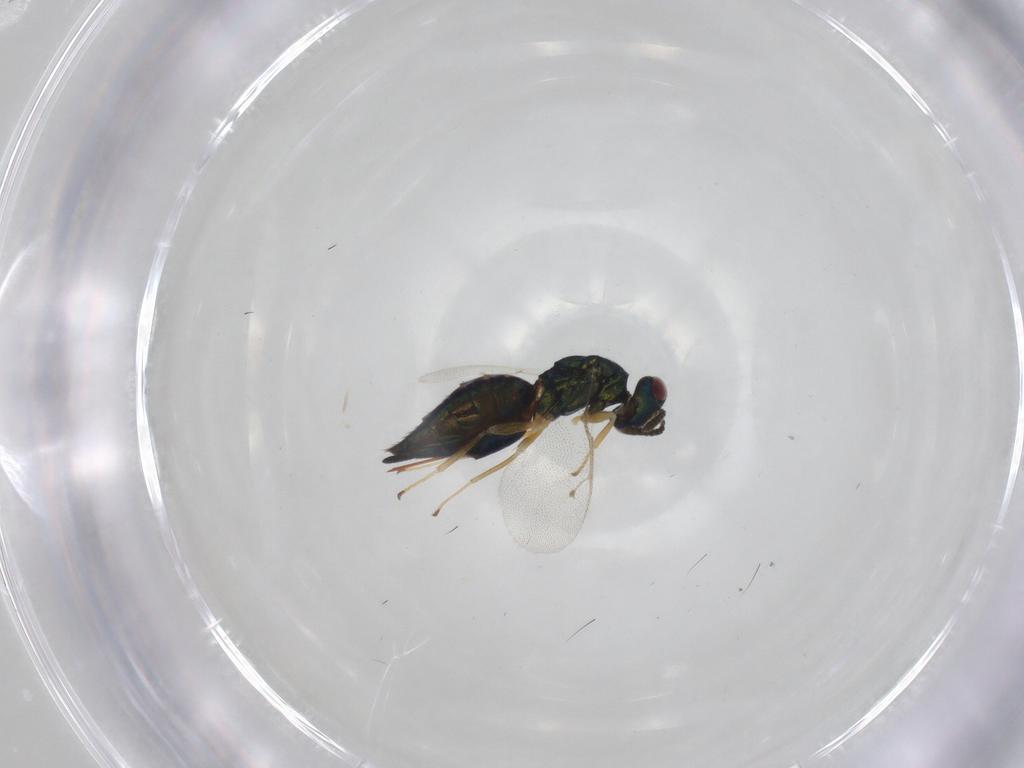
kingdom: Animalia
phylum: Arthropoda
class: Insecta
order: Hymenoptera
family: Pteromalidae
